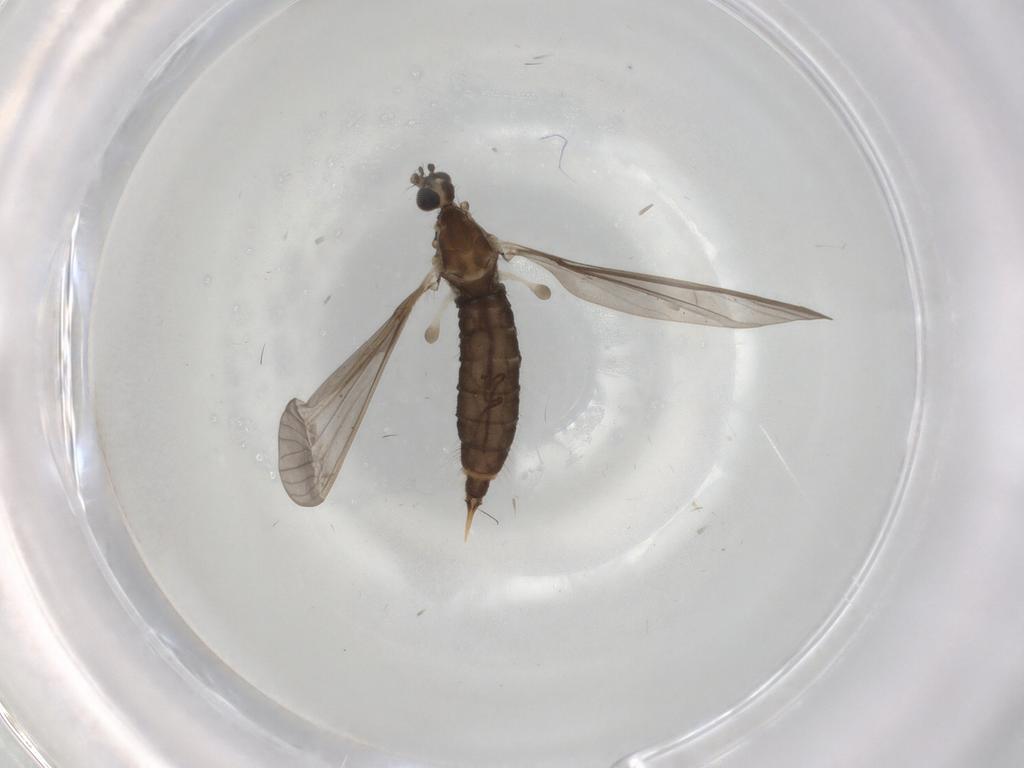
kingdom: Animalia
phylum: Arthropoda
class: Insecta
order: Diptera
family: Limoniidae
